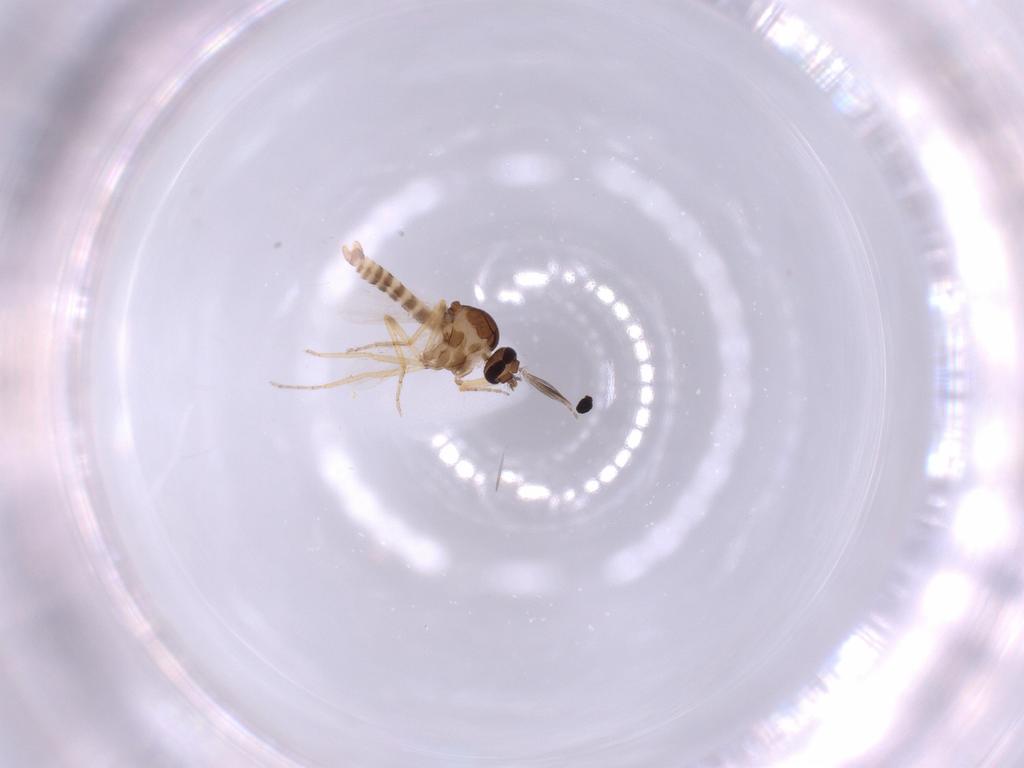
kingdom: Animalia
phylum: Arthropoda
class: Insecta
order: Diptera
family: Ceratopogonidae
